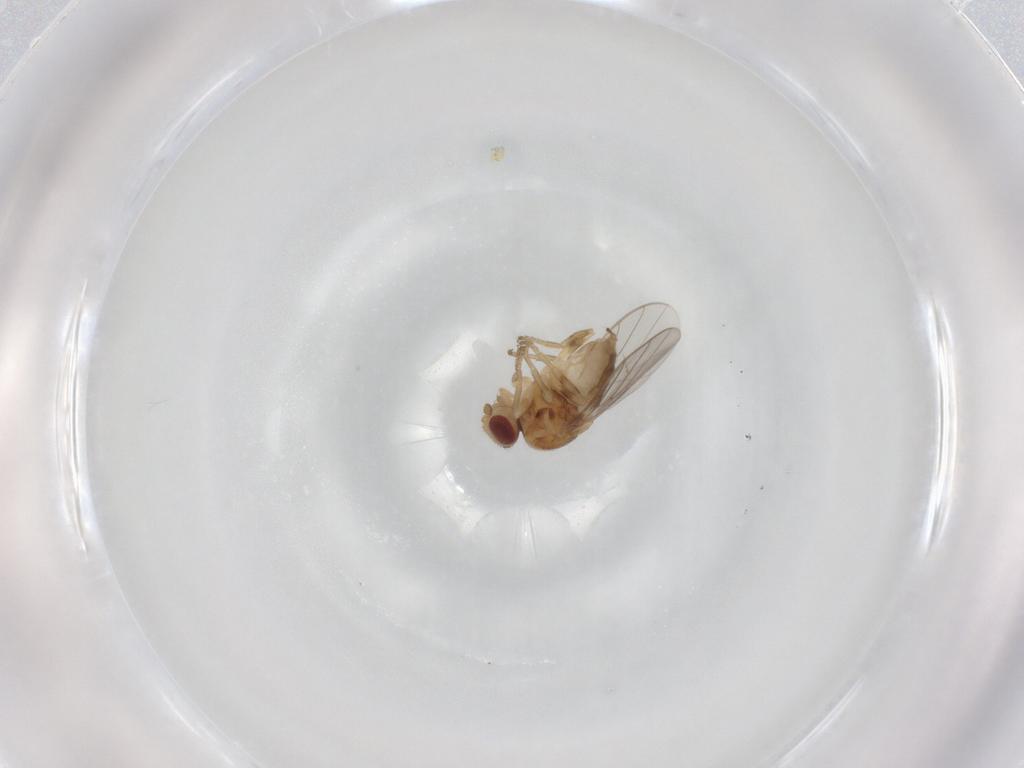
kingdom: Animalia
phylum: Arthropoda
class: Insecta
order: Diptera
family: Chloropidae
